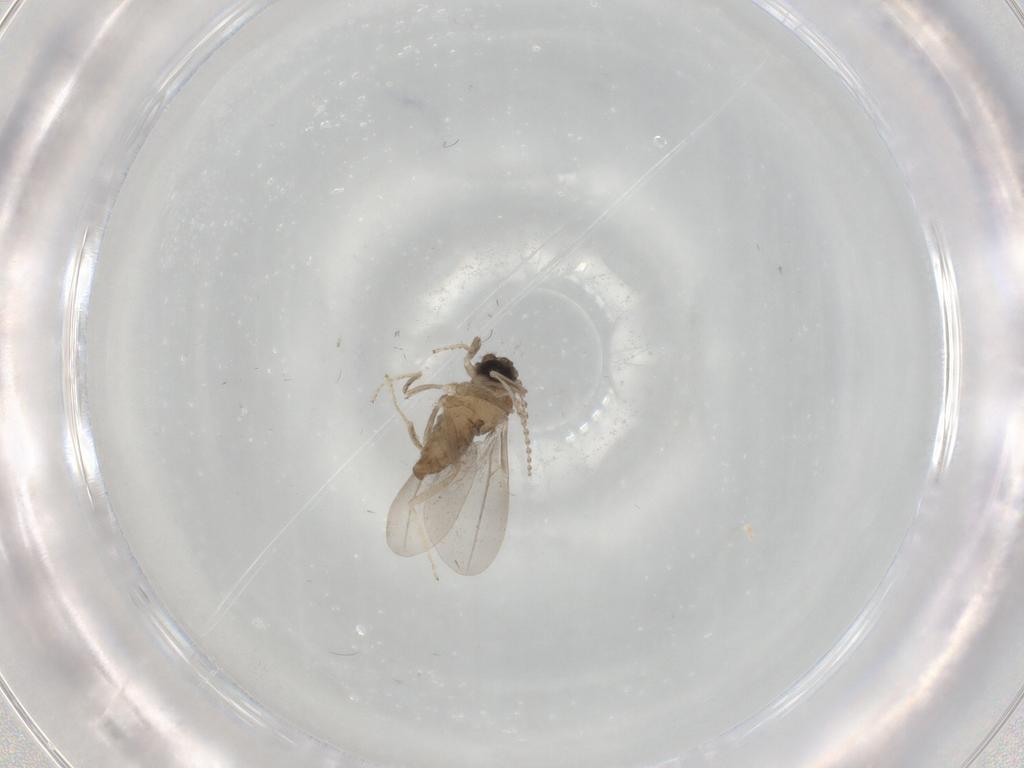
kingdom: Animalia
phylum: Arthropoda
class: Insecta
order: Diptera
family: Cecidomyiidae
